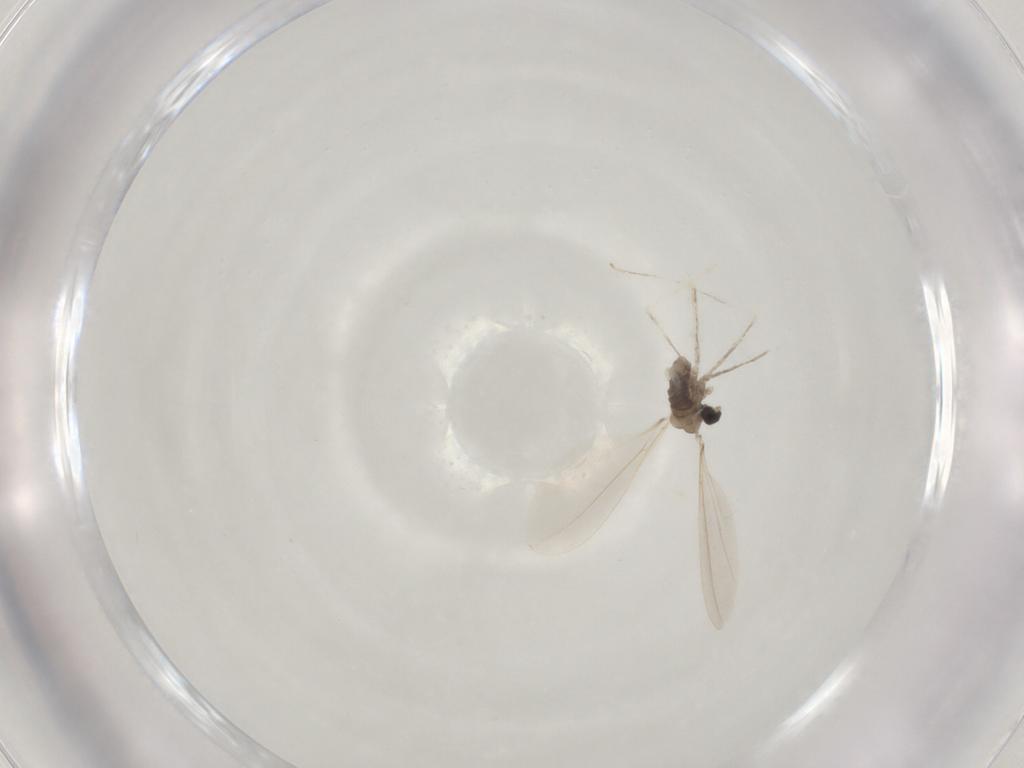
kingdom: Animalia
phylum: Arthropoda
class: Insecta
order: Diptera
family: Cecidomyiidae
